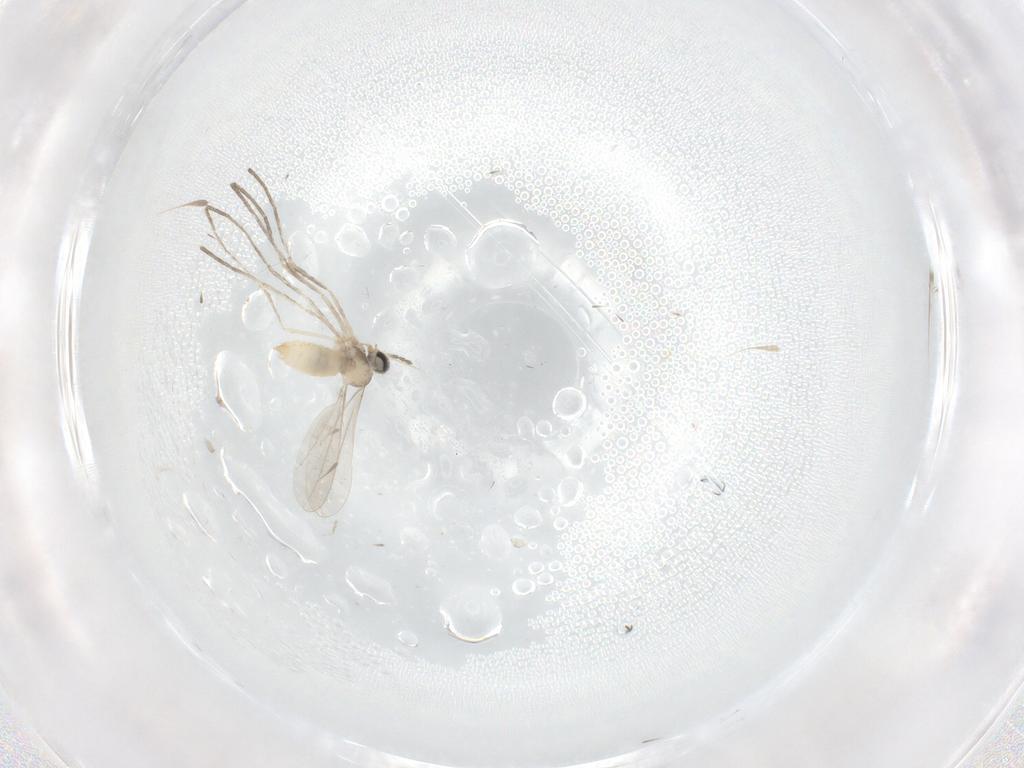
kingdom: Animalia
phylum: Arthropoda
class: Insecta
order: Diptera
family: Cecidomyiidae
